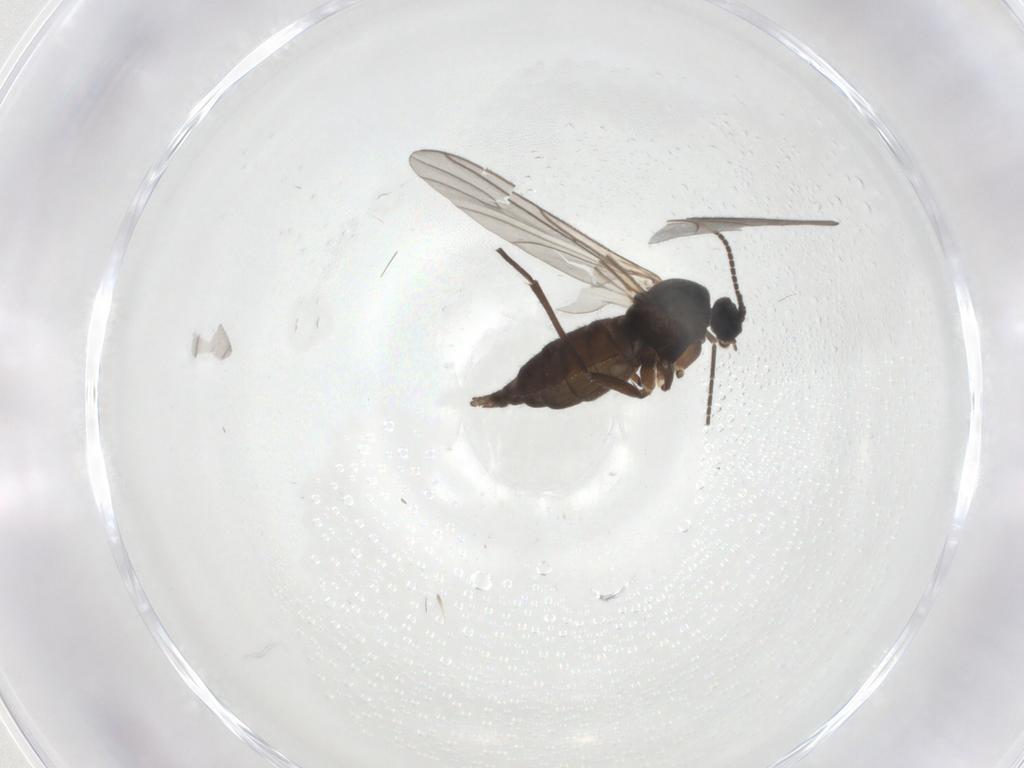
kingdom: Animalia
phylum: Arthropoda
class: Insecta
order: Diptera
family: Sciaridae
